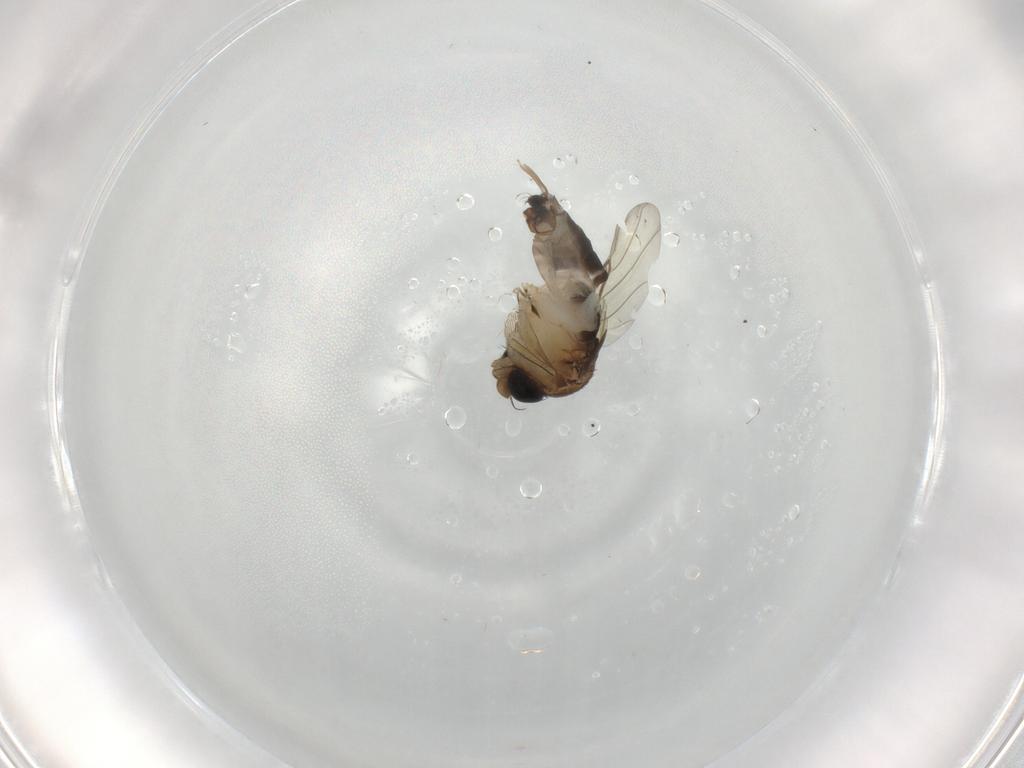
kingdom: Animalia
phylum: Arthropoda
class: Insecta
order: Diptera
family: Phoridae
